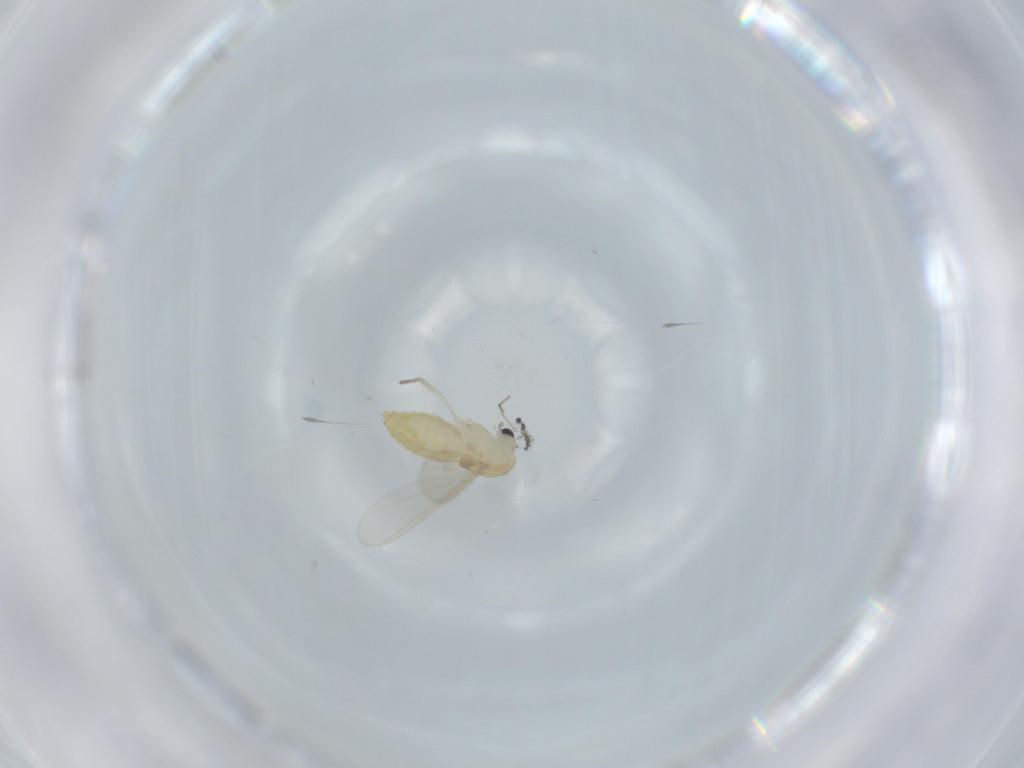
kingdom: Animalia
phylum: Arthropoda
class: Insecta
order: Diptera
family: Chironomidae
